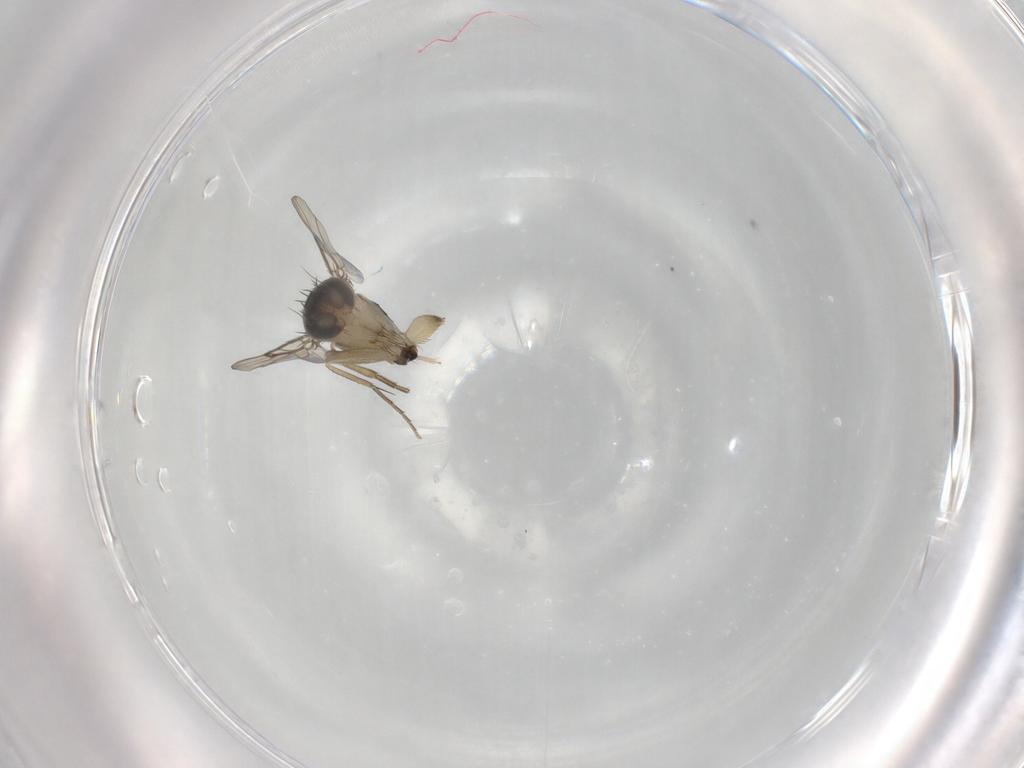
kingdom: Animalia
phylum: Arthropoda
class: Insecta
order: Diptera
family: Phoridae
